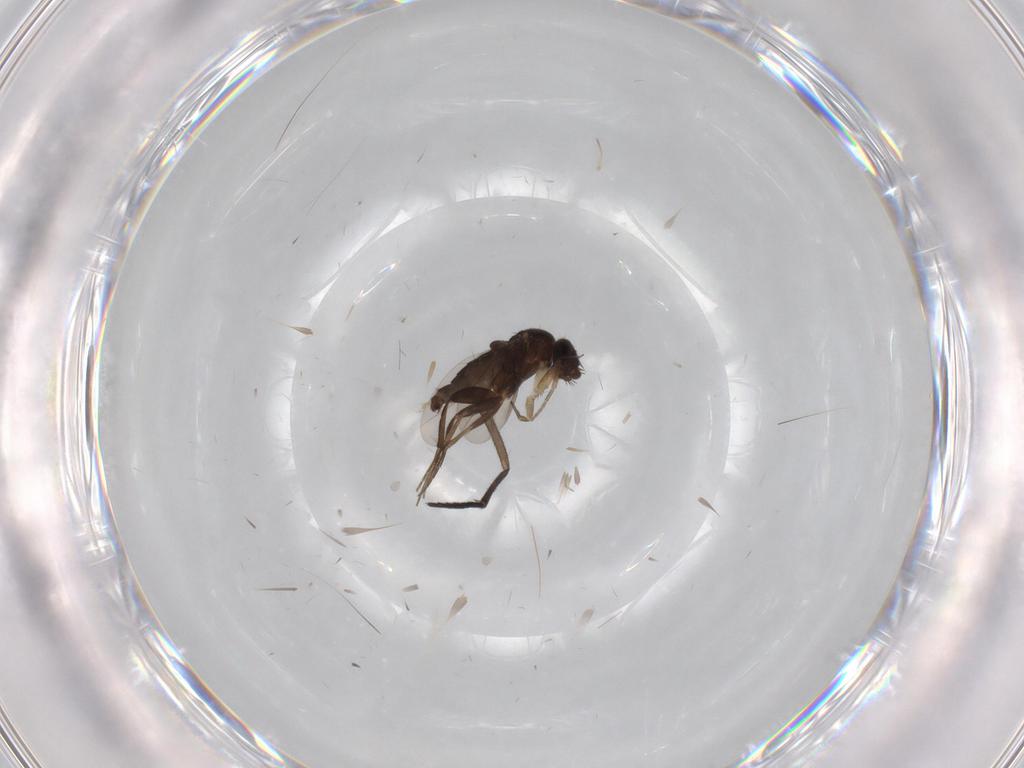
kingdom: Animalia
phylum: Arthropoda
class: Insecta
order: Diptera
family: Sciaridae
